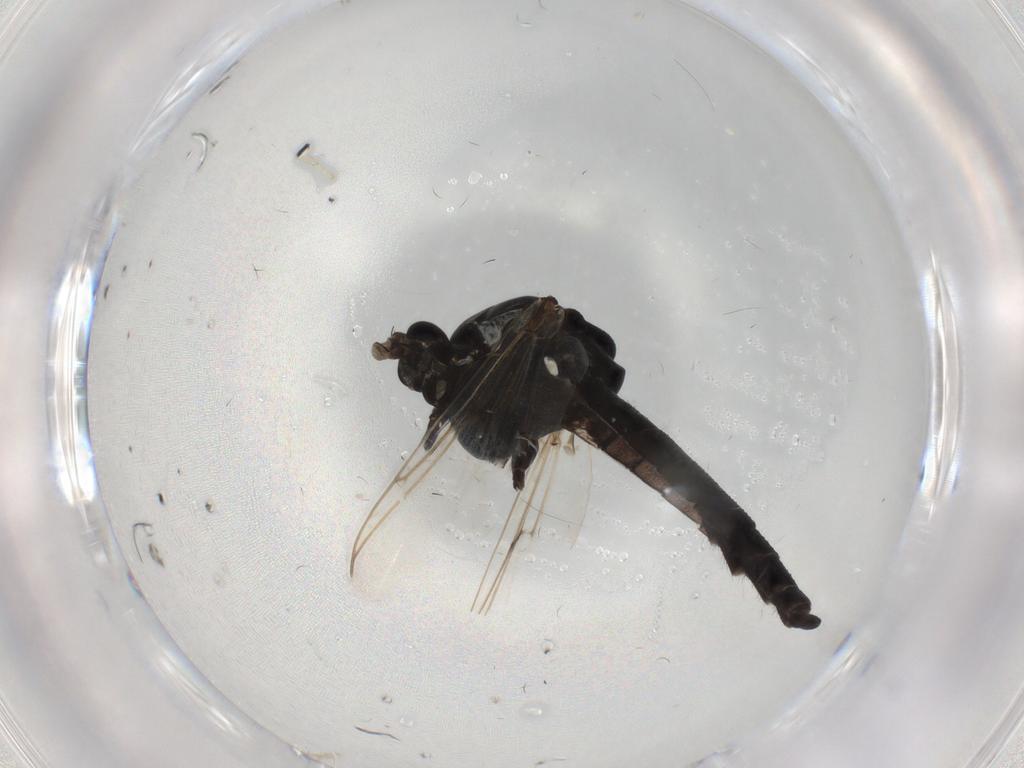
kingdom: Animalia
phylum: Arthropoda
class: Insecta
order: Diptera
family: Chironomidae
